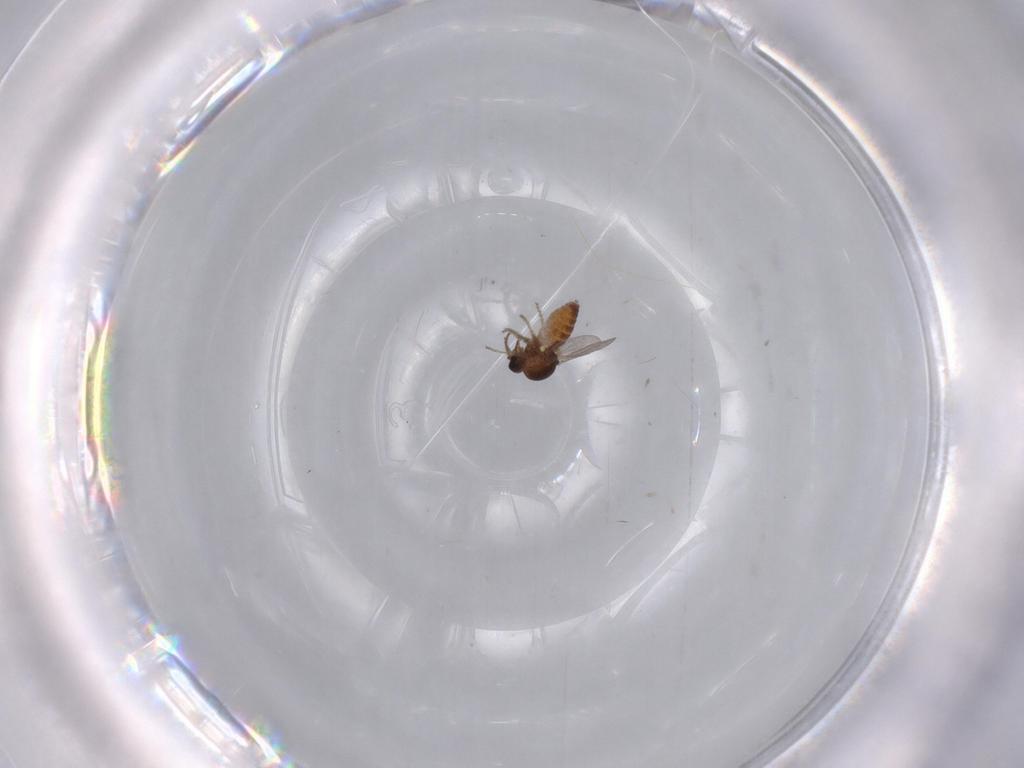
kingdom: Animalia
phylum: Arthropoda
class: Insecta
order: Diptera
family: Ceratopogonidae
